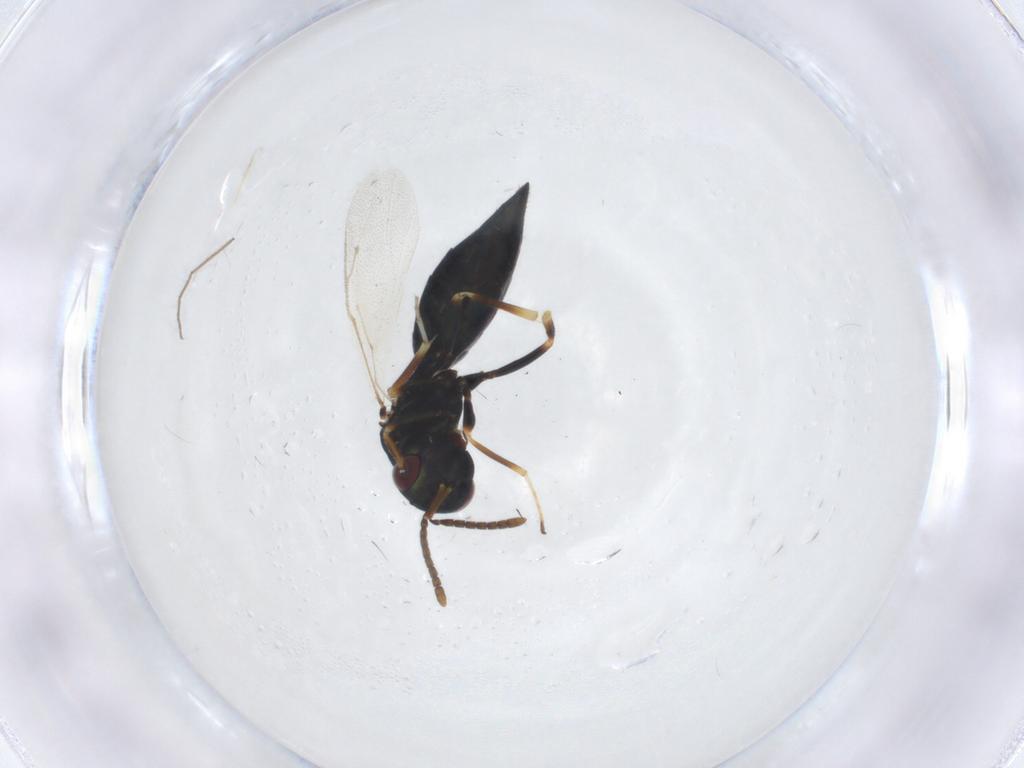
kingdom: Animalia
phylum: Arthropoda
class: Insecta
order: Hymenoptera
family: Pteromalidae
